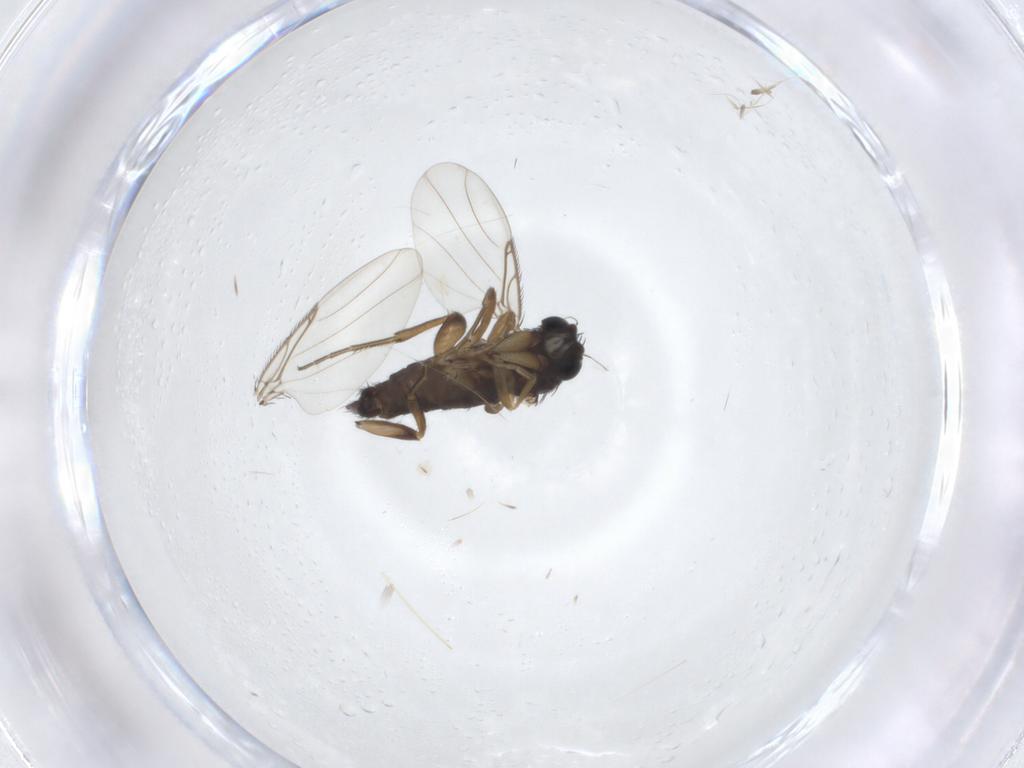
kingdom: Animalia
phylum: Arthropoda
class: Insecta
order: Diptera
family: Phoridae
